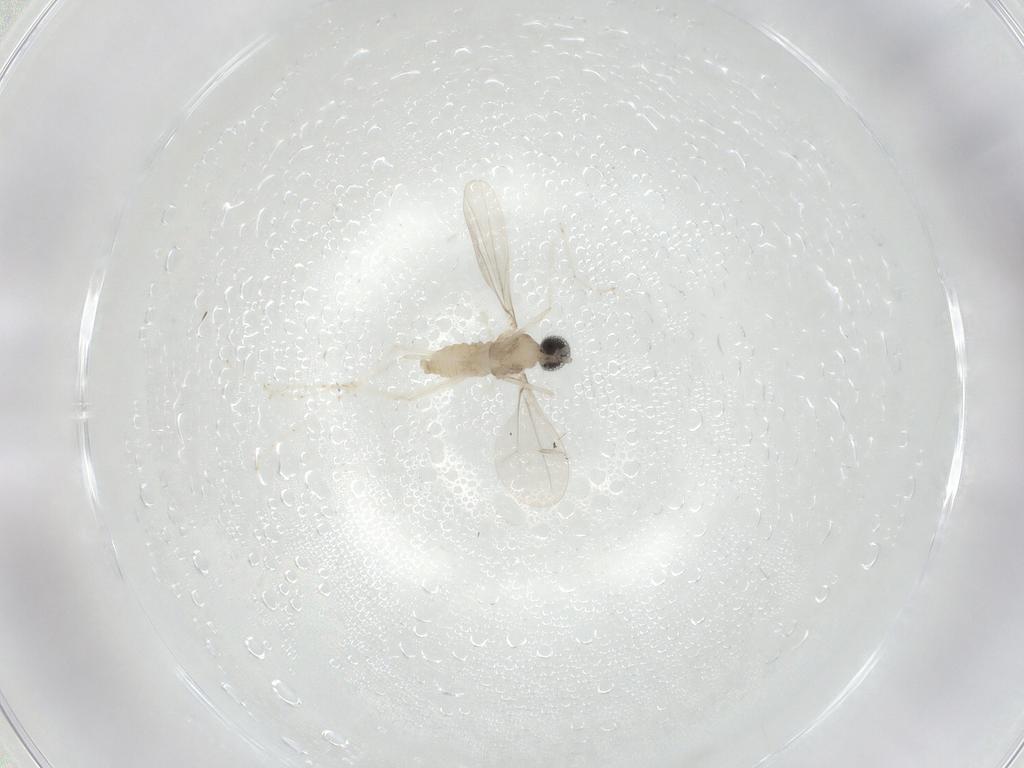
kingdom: Animalia
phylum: Arthropoda
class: Insecta
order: Diptera
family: Cecidomyiidae
